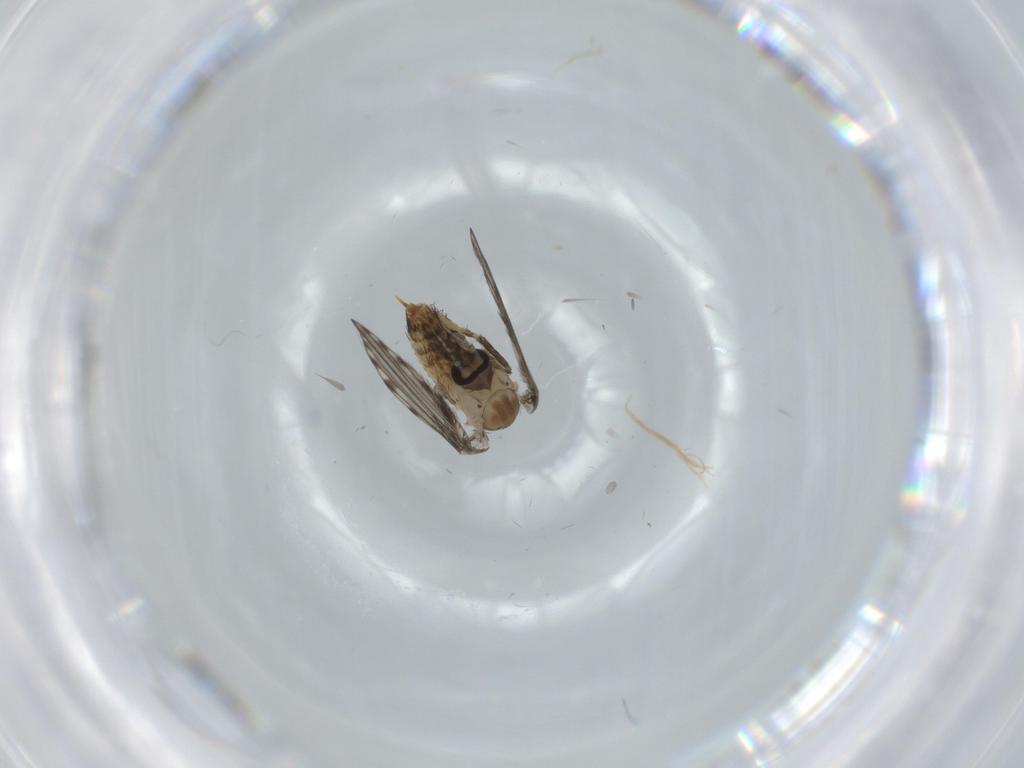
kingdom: Animalia
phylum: Arthropoda
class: Insecta
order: Diptera
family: Psychodidae
